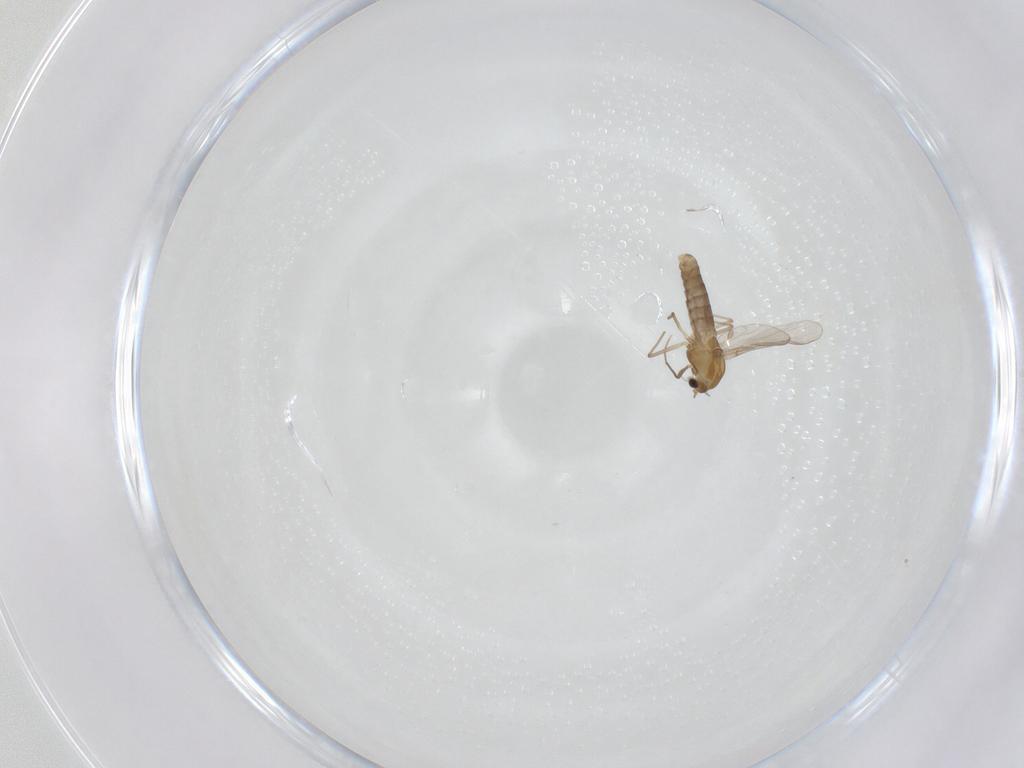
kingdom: Animalia
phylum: Arthropoda
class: Insecta
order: Diptera
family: Chironomidae
